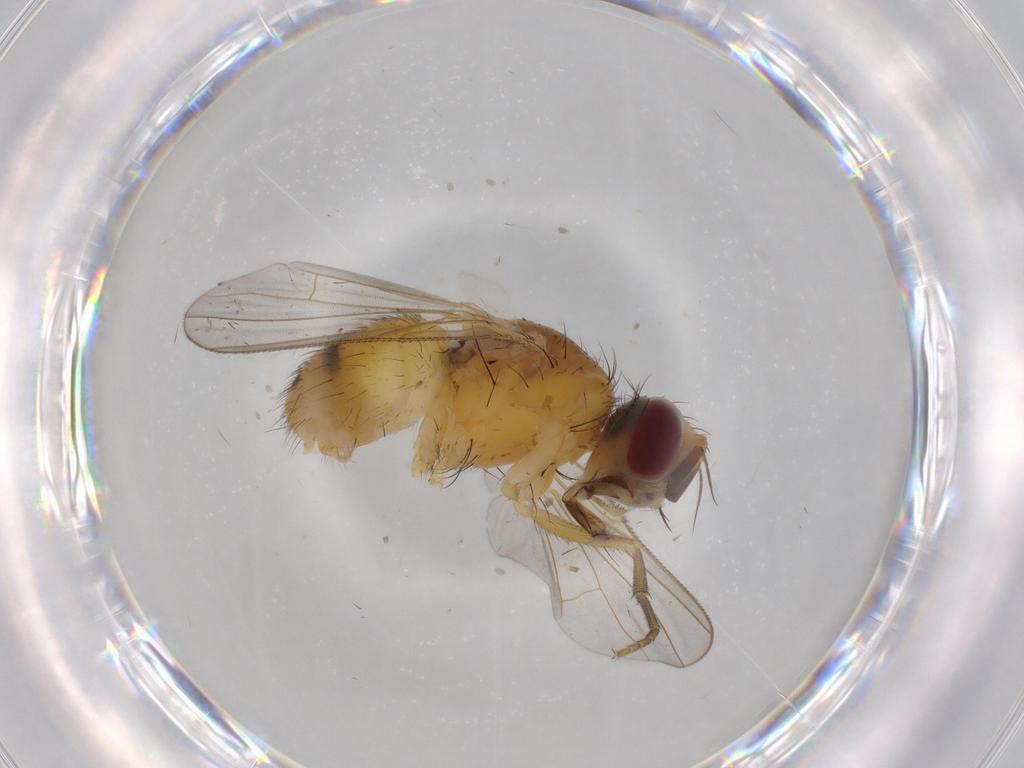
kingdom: Animalia
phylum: Arthropoda
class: Insecta
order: Diptera
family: Muscidae
